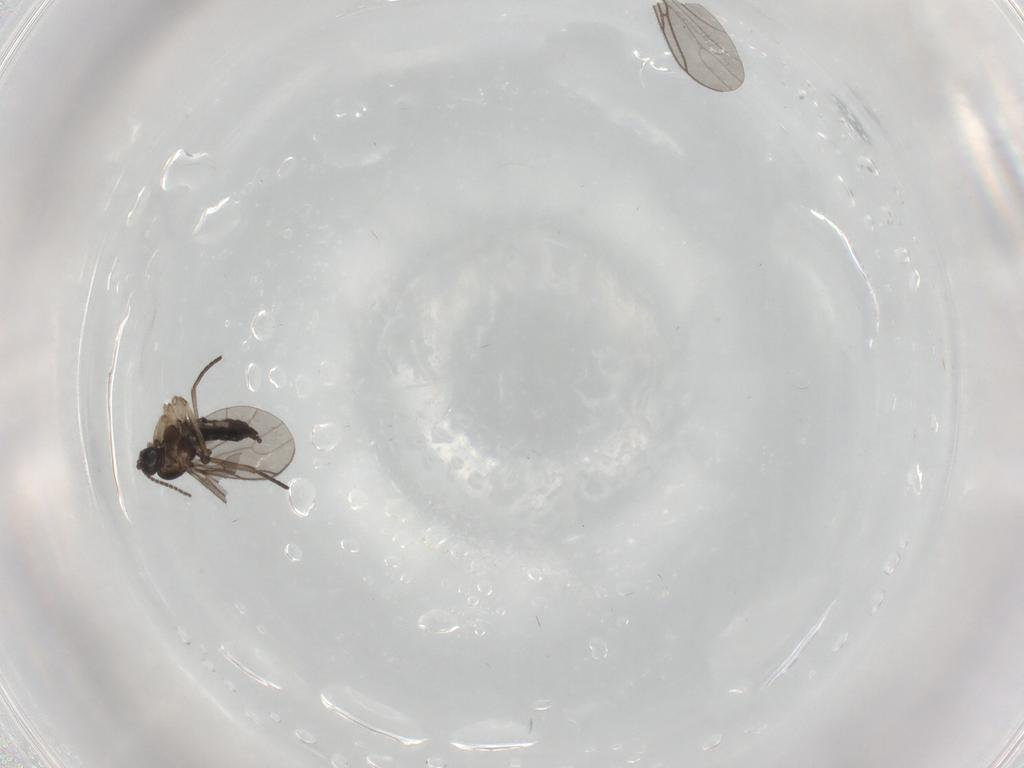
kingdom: Animalia
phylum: Arthropoda
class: Insecta
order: Diptera
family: Sciaridae
